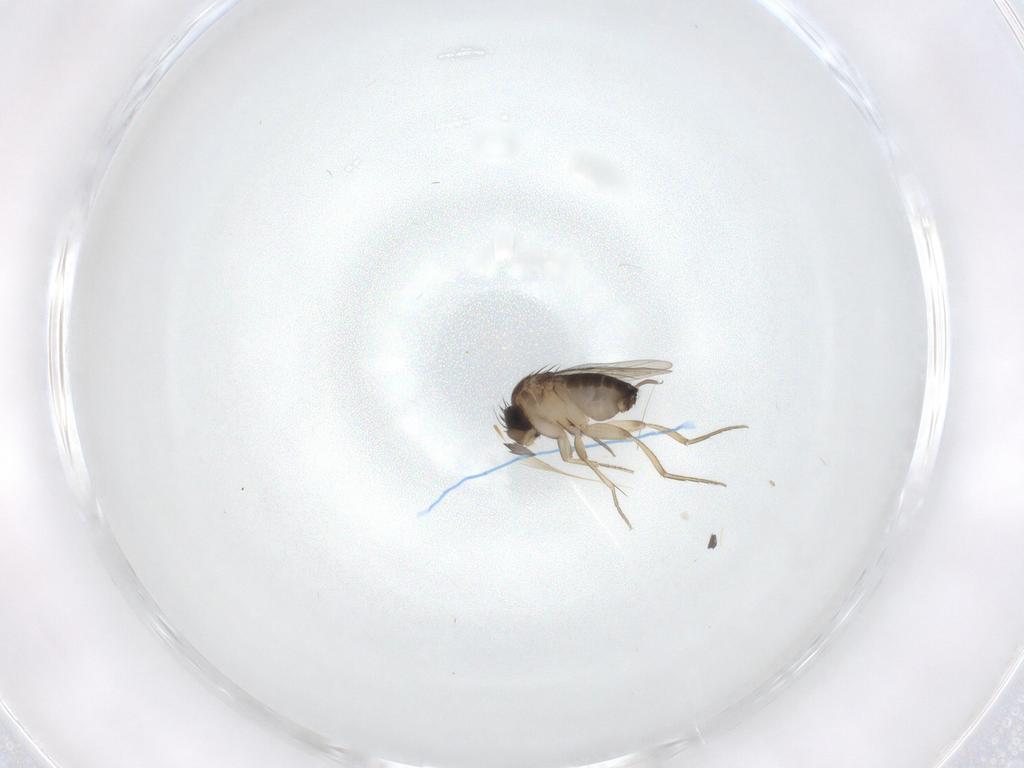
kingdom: Animalia
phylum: Arthropoda
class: Insecta
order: Diptera
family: Phoridae
